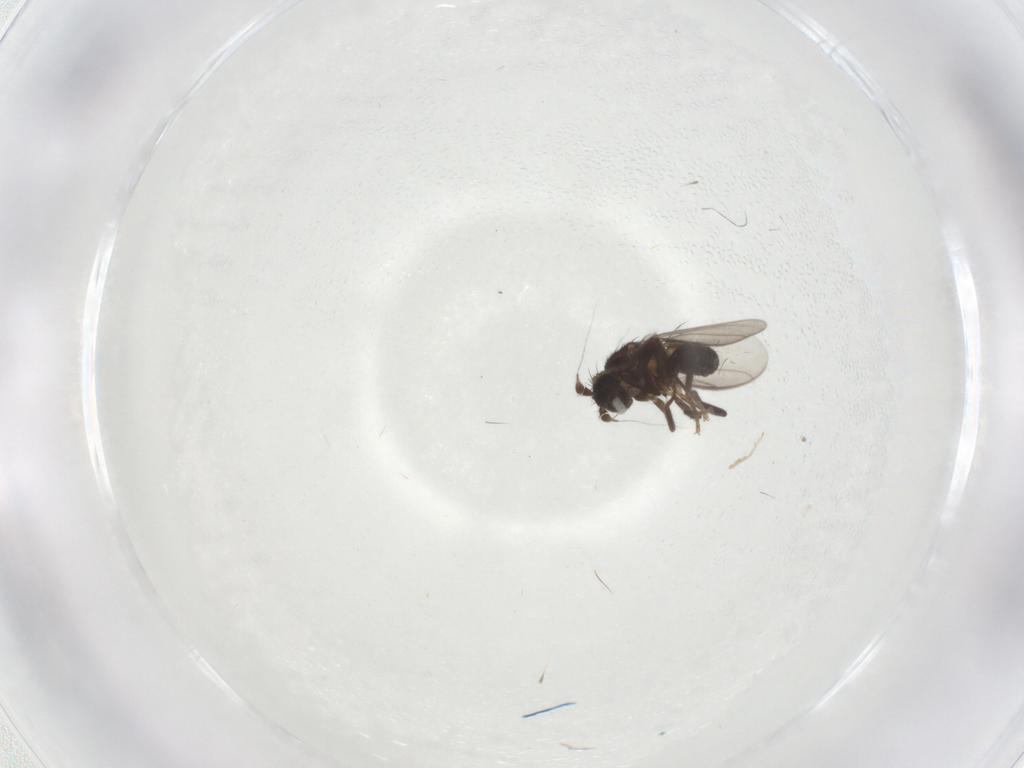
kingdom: Animalia
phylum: Arthropoda
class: Insecta
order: Diptera
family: Sphaeroceridae
